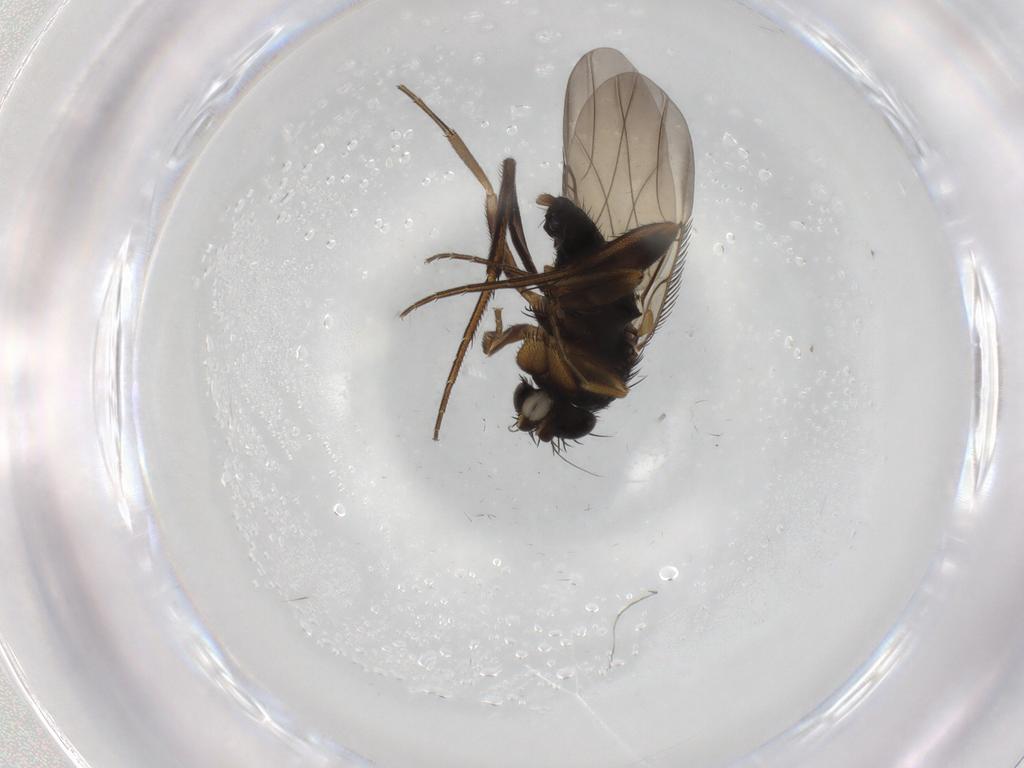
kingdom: Animalia
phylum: Arthropoda
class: Insecta
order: Diptera
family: Phoridae
